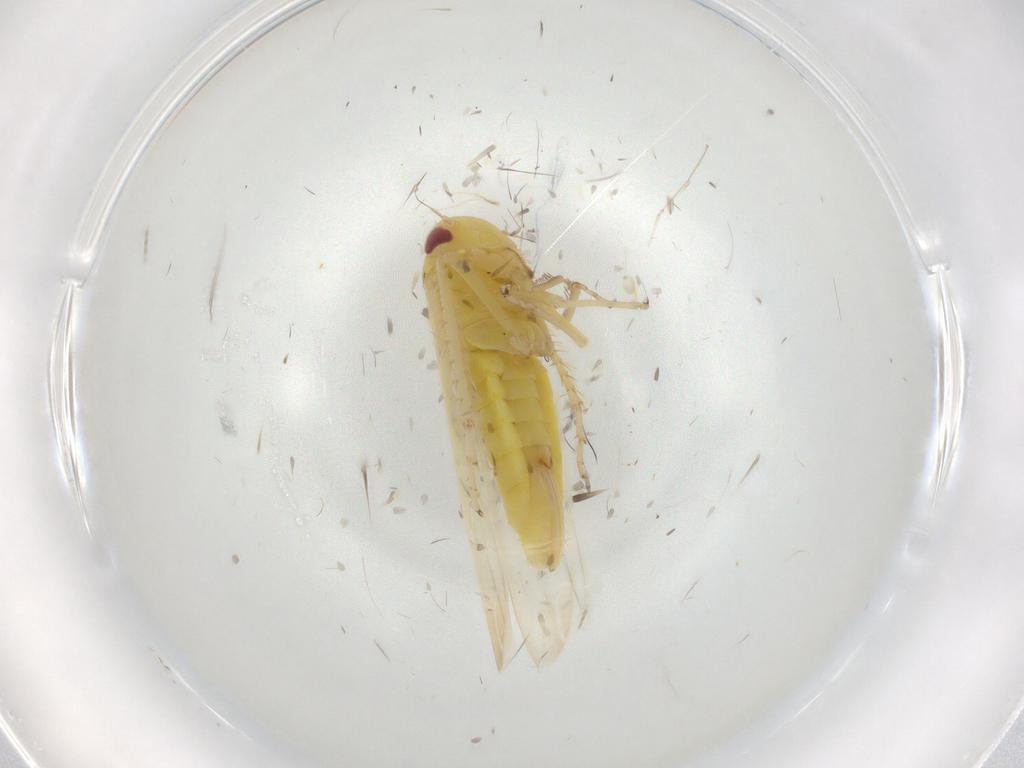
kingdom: Animalia
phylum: Arthropoda
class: Insecta
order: Hemiptera
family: Cicadellidae
